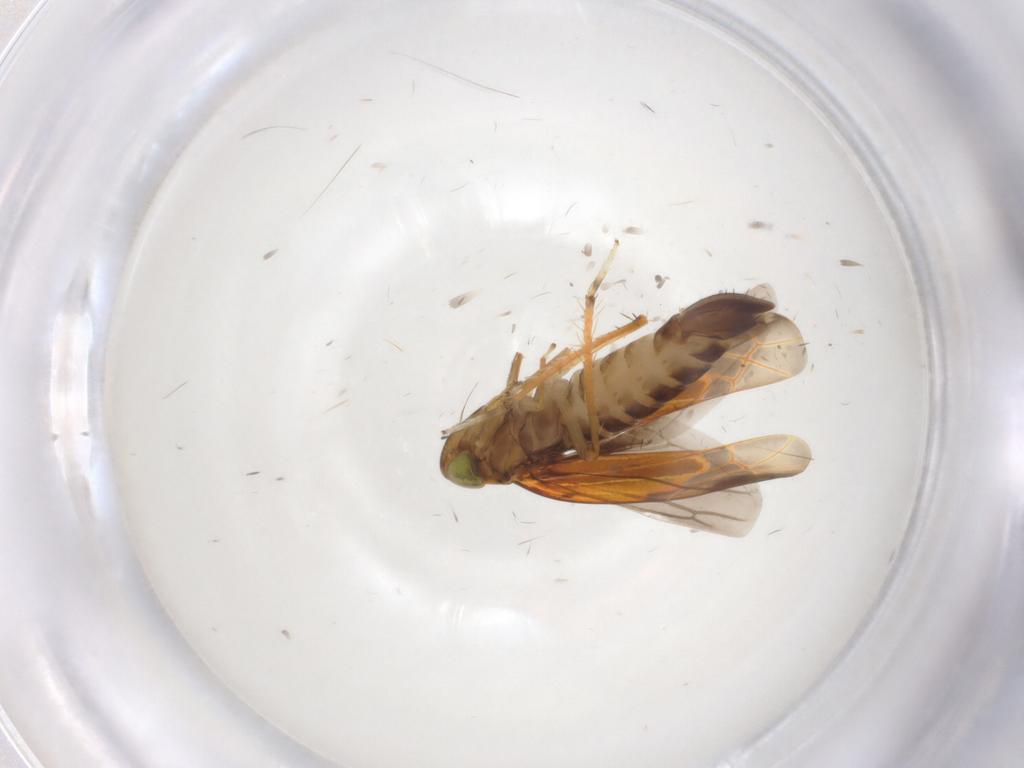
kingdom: Animalia
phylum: Arthropoda
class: Insecta
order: Hemiptera
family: Cicadellidae
